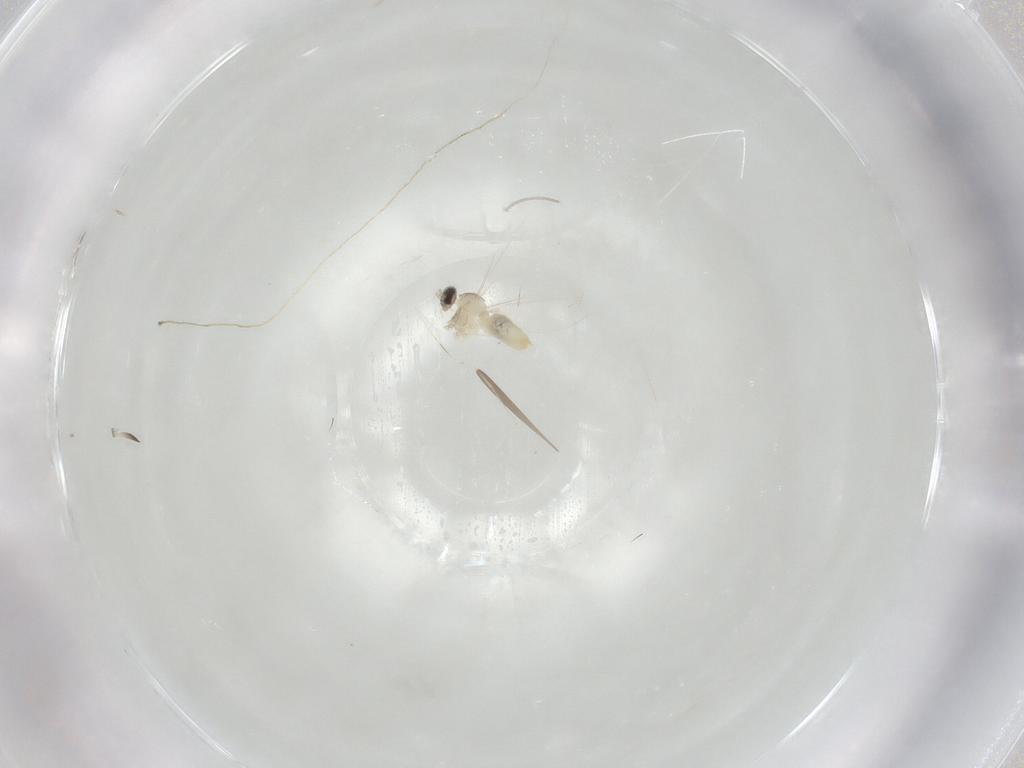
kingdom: Animalia
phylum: Arthropoda
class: Insecta
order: Diptera
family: Cecidomyiidae
